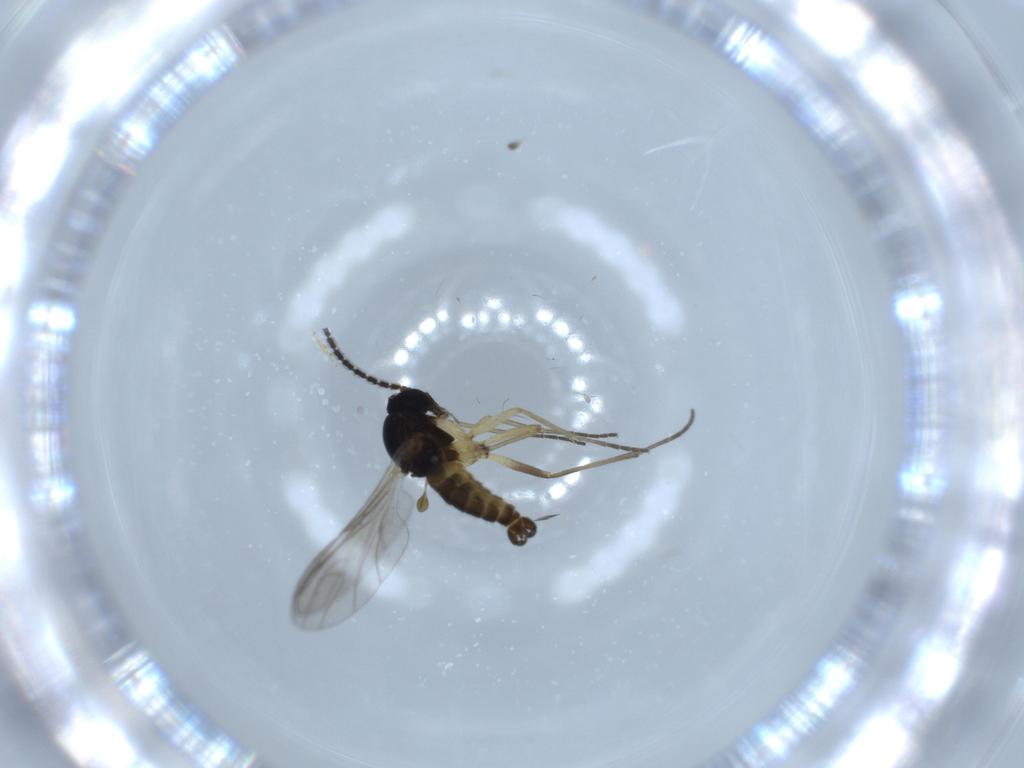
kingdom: Animalia
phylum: Arthropoda
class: Insecta
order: Diptera
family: Sciaridae
